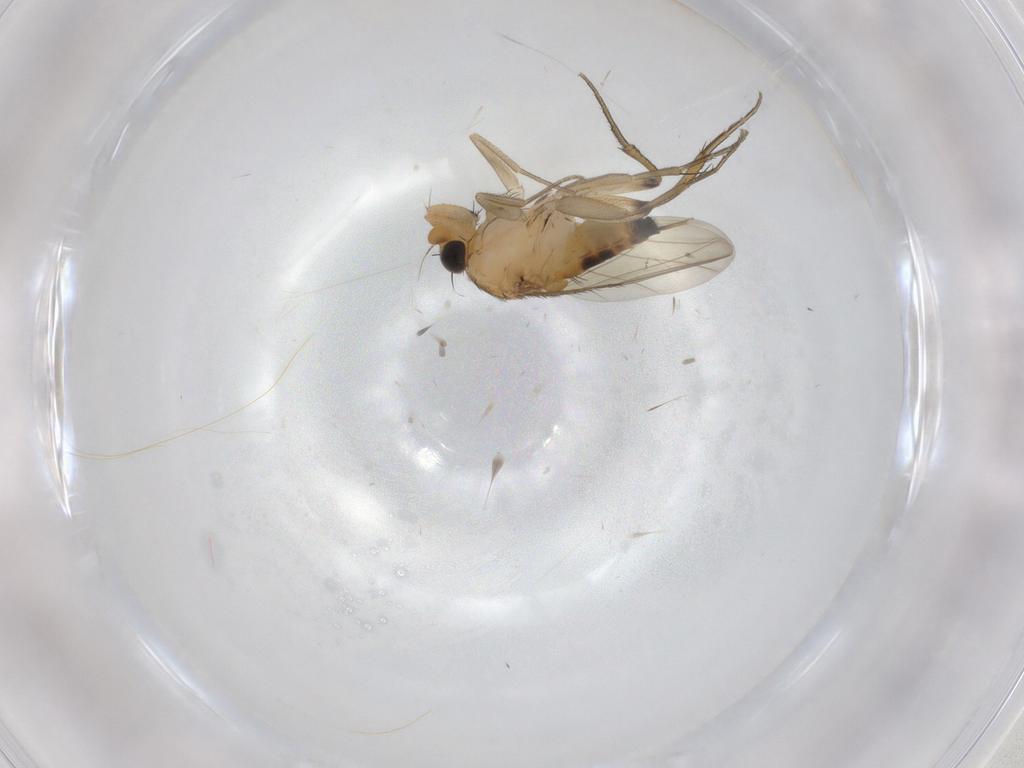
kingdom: Animalia
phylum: Arthropoda
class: Insecta
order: Diptera
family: Phoridae
